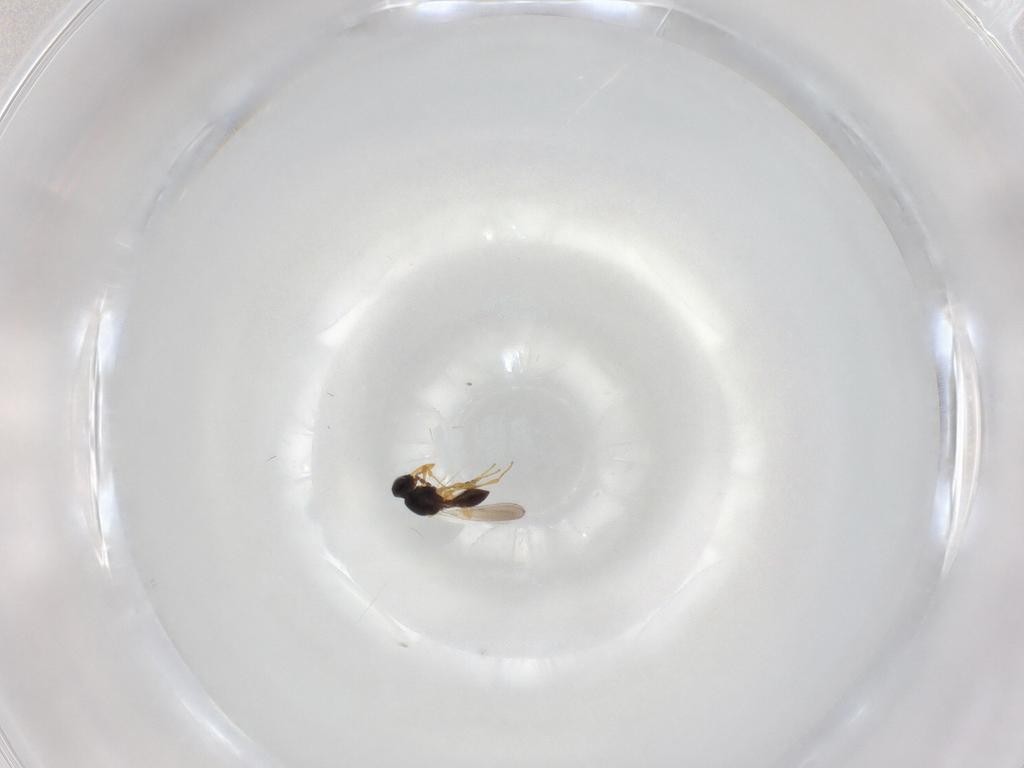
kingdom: Animalia
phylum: Arthropoda
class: Insecta
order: Hymenoptera
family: Platygastridae
